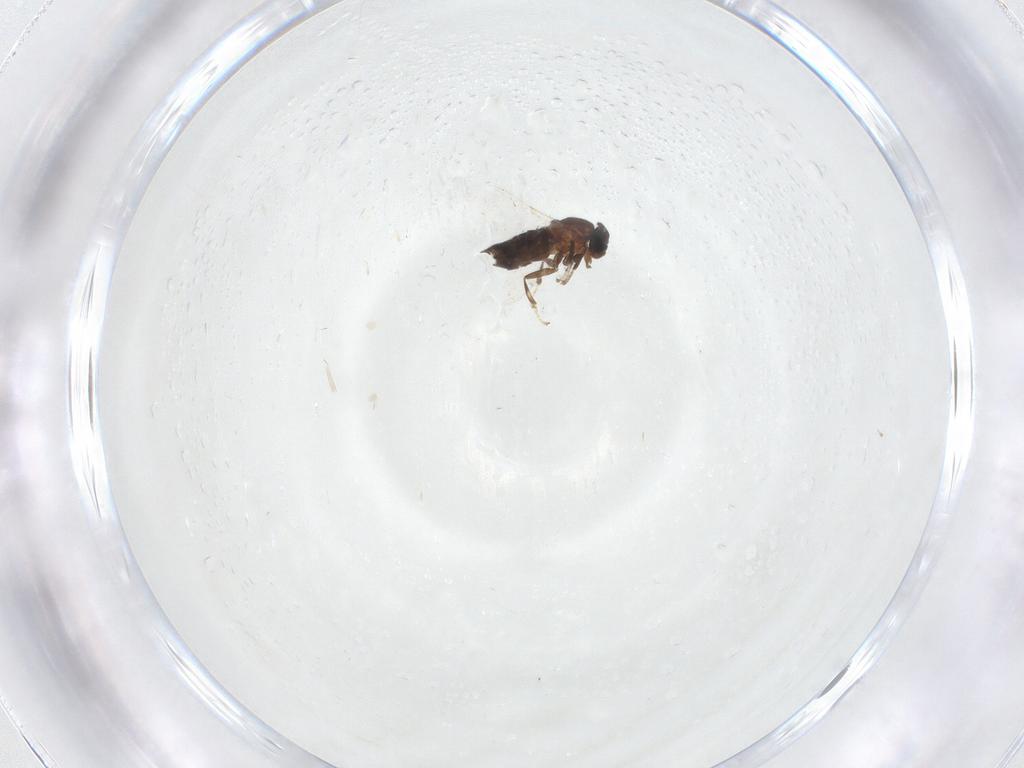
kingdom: Animalia
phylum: Arthropoda
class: Insecta
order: Diptera
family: Scatopsidae
